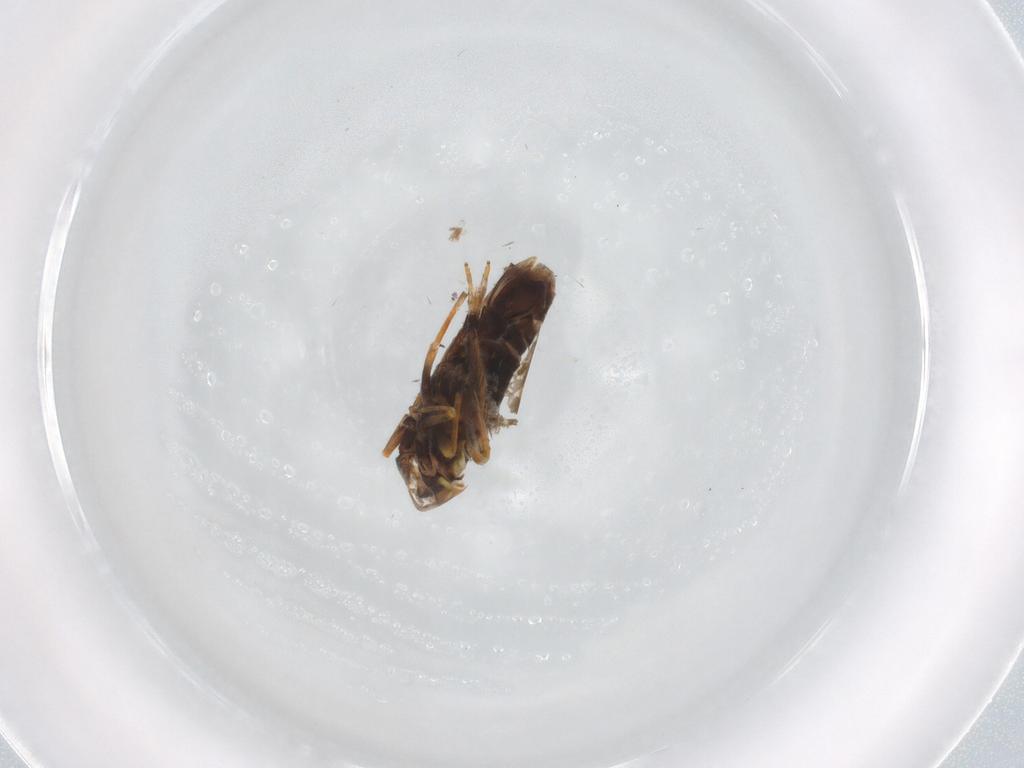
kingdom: Animalia
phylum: Arthropoda
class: Insecta
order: Hemiptera
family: Cicadellidae
